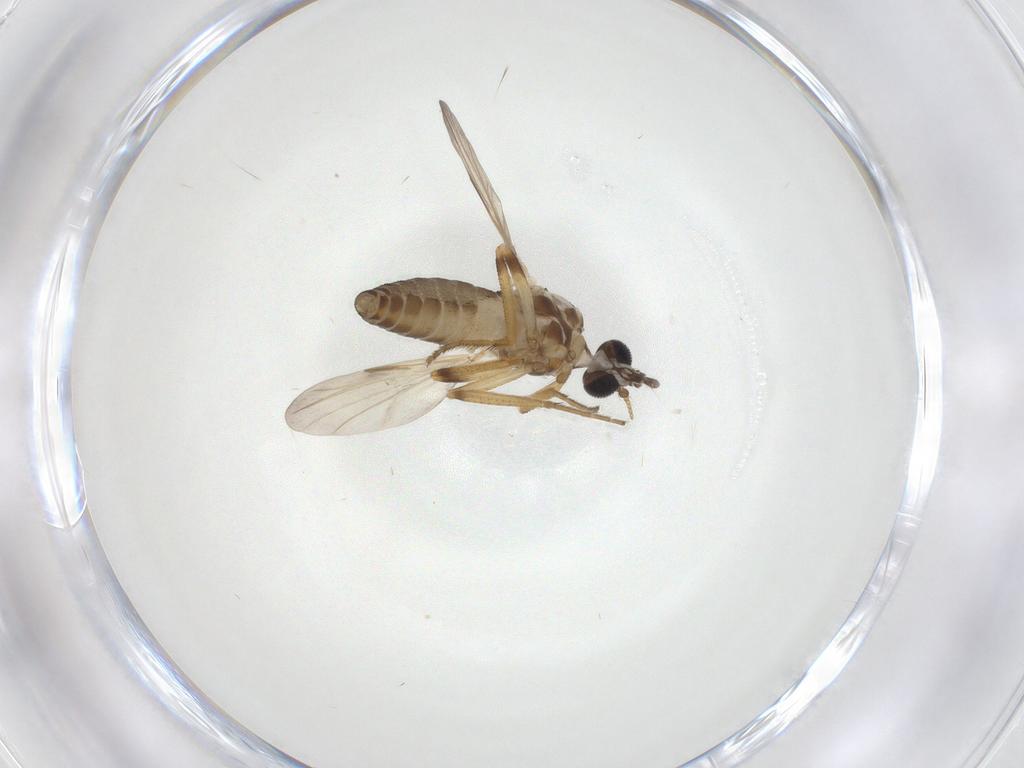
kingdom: Animalia
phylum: Arthropoda
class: Insecta
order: Diptera
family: Ceratopogonidae
